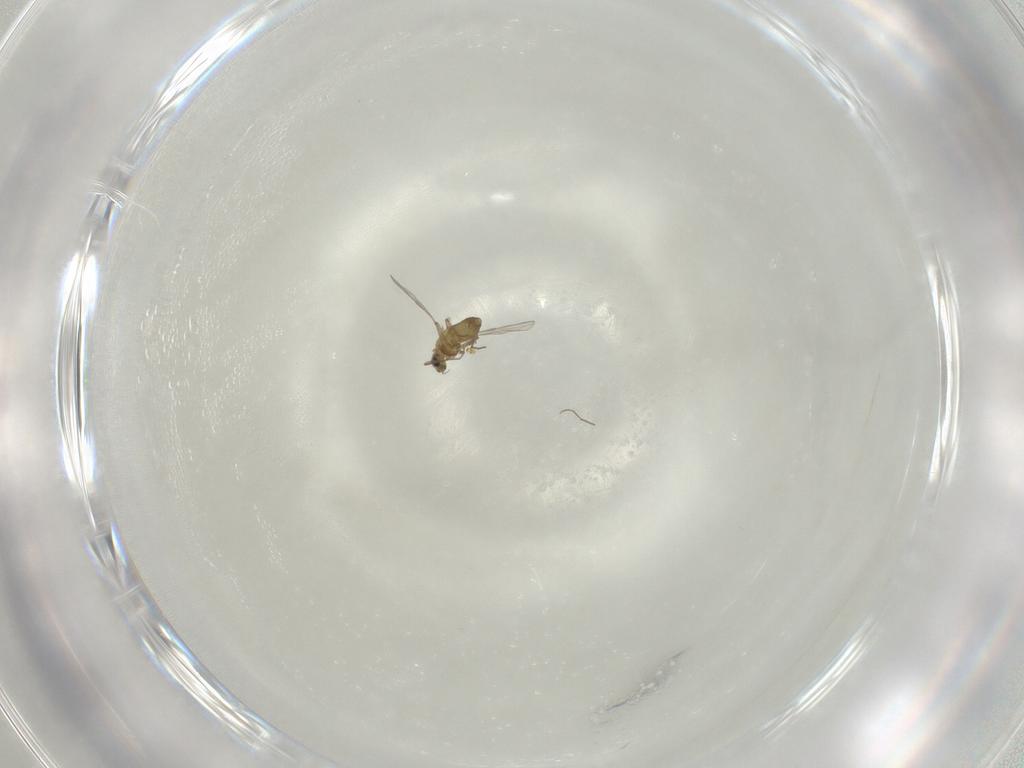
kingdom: Animalia
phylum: Arthropoda
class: Insecta
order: Diptera
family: Chironomidae
